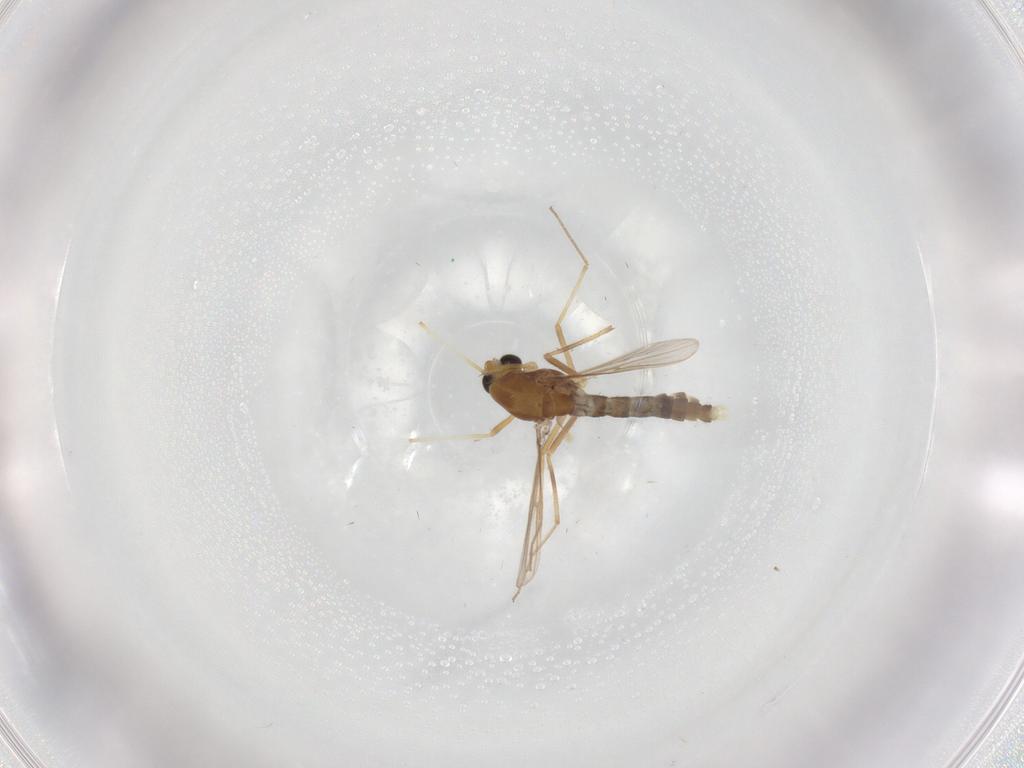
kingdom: Animalia
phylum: Arthropoda
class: Insecta
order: Diptera
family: Chironomidae
